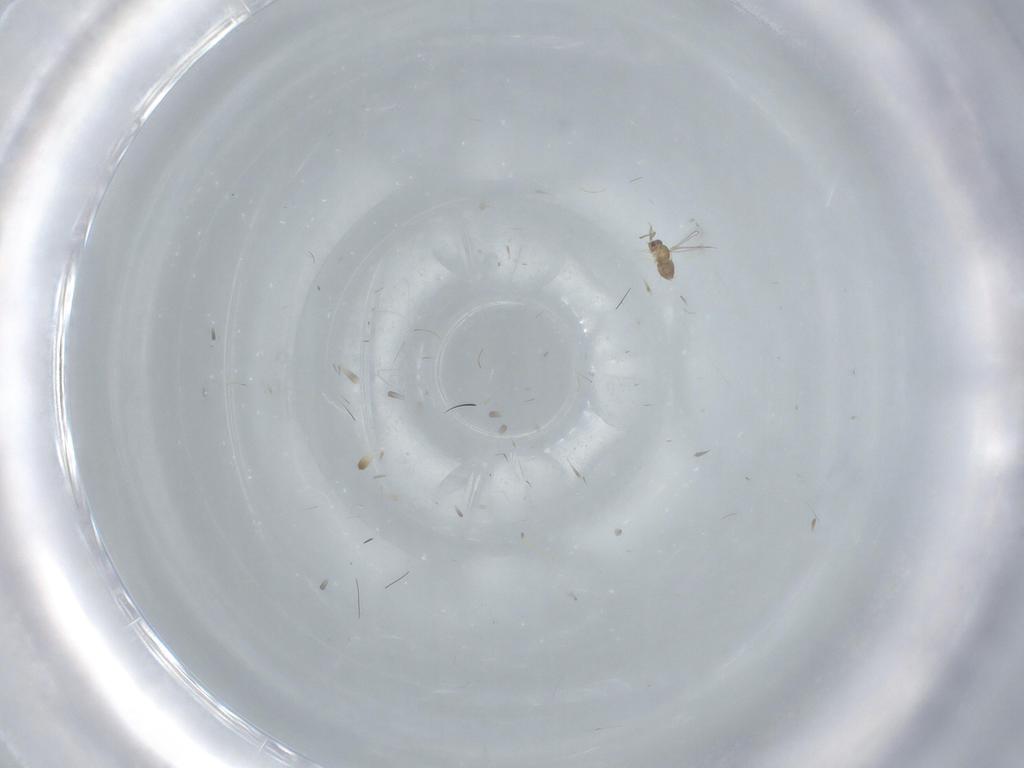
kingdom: Animalia
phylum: Arthropoda
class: Insecta
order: Hymenoptera
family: Mymaridae
